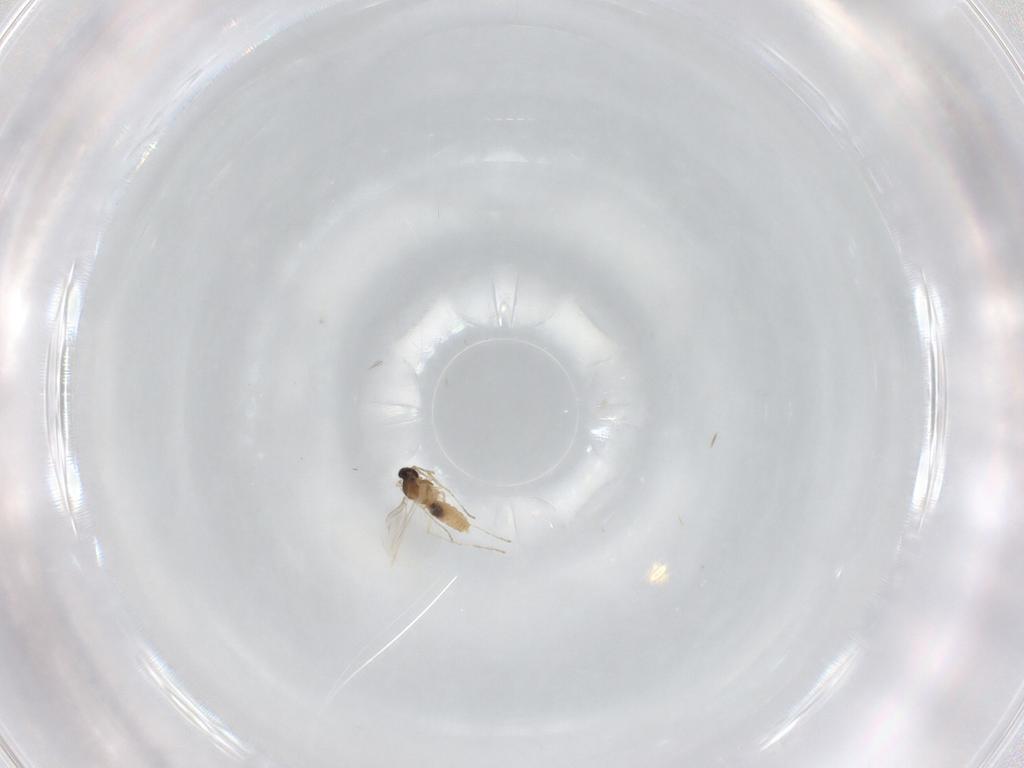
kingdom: Animalia
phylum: Arthropoda
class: Insecta
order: Diptera
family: Cecidomyiidae
